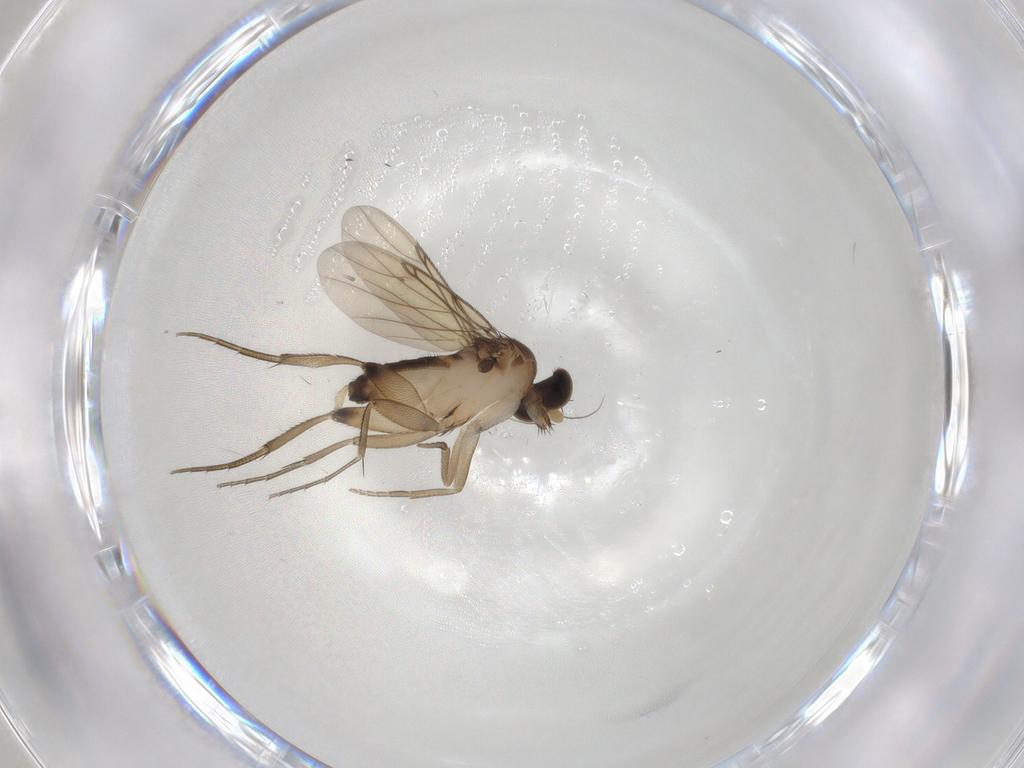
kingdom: Animalia
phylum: Arthropoda
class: Insecta
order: Diptera
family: Phoridae
